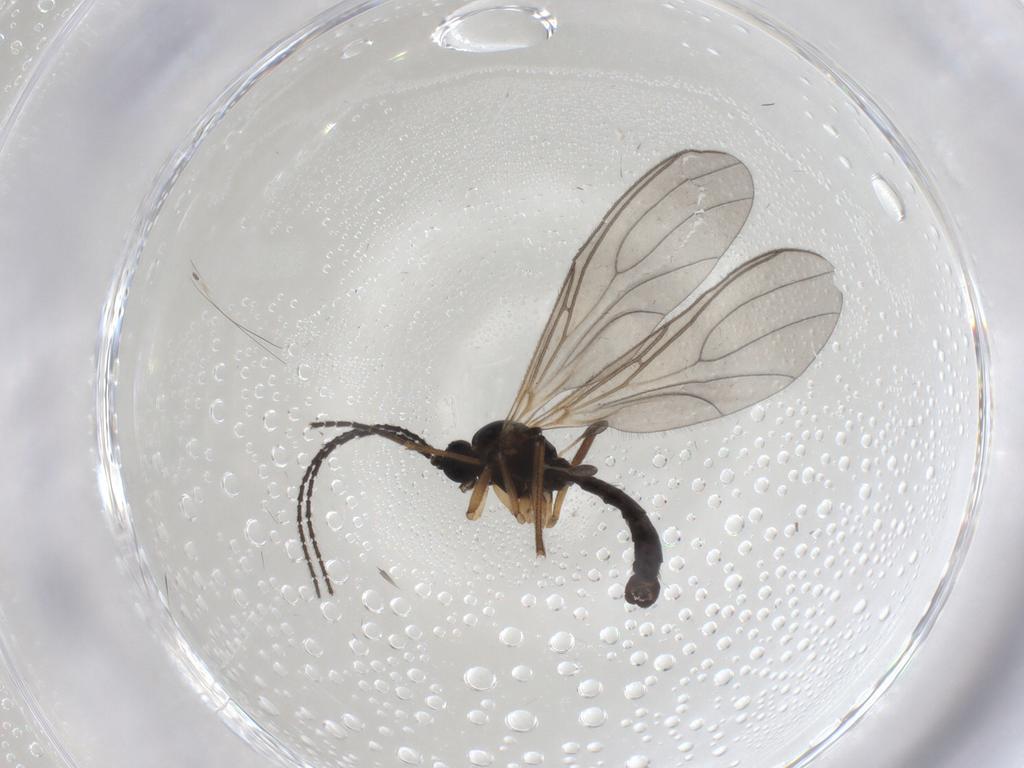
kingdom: Animalia
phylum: Arthropoda
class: Insecta
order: Diptera
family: Sciaridae
